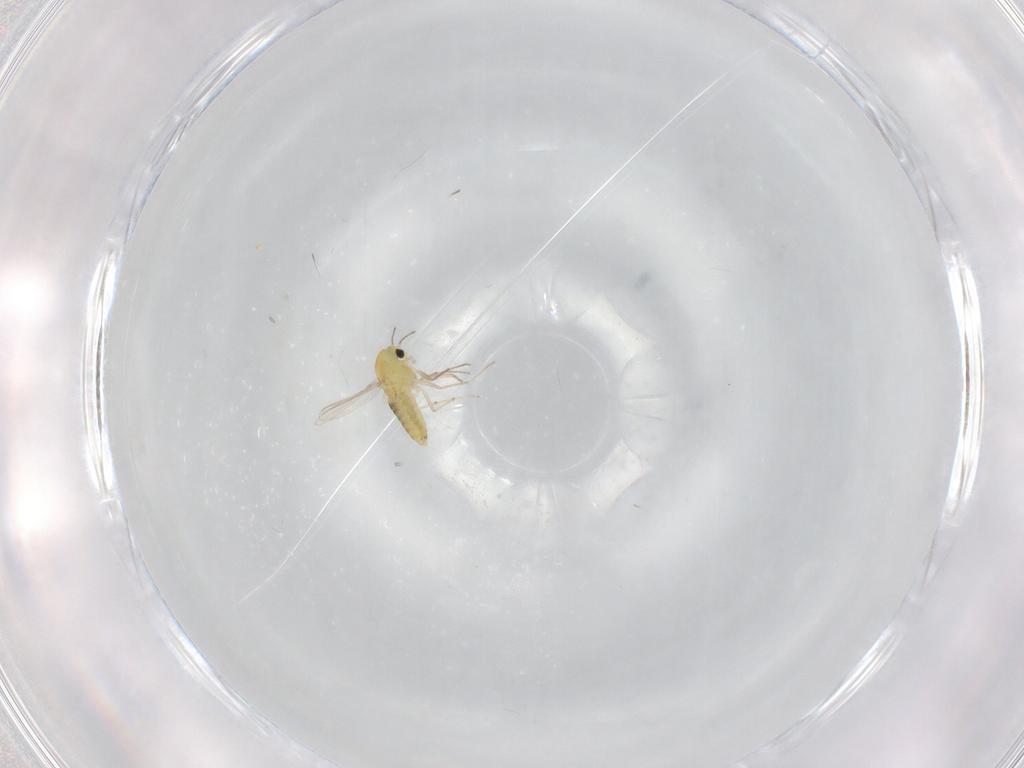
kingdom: Animalia
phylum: Arthropoda
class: Insecta
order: Diptera
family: Chironomidae
